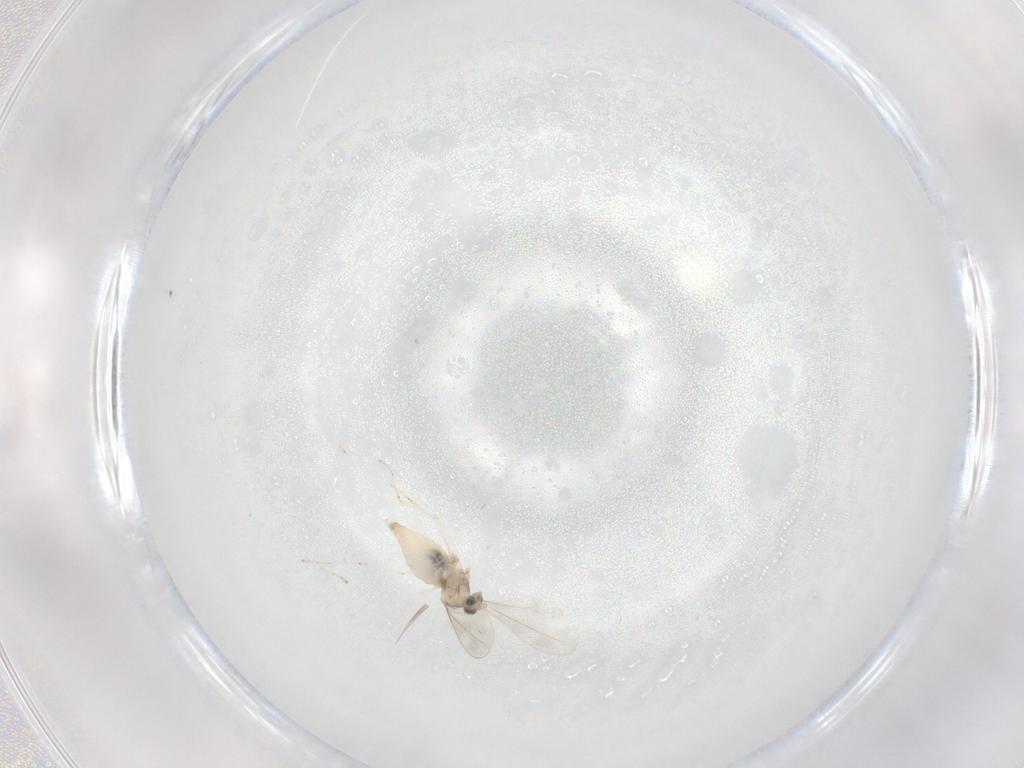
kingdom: Animalia
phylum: Arthropoda
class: Insecta
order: Diptera
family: Cecidomyiidae
